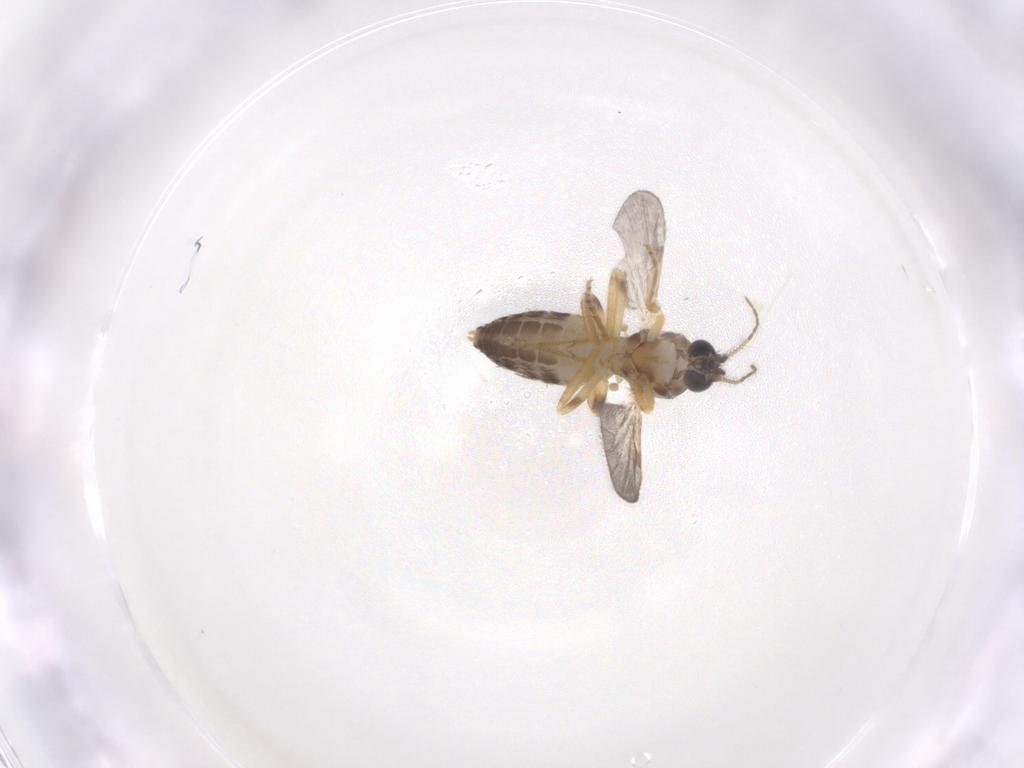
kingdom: Animalia
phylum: Arthropoda
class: Insecta
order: Diptera
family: Ceratopogonidae
